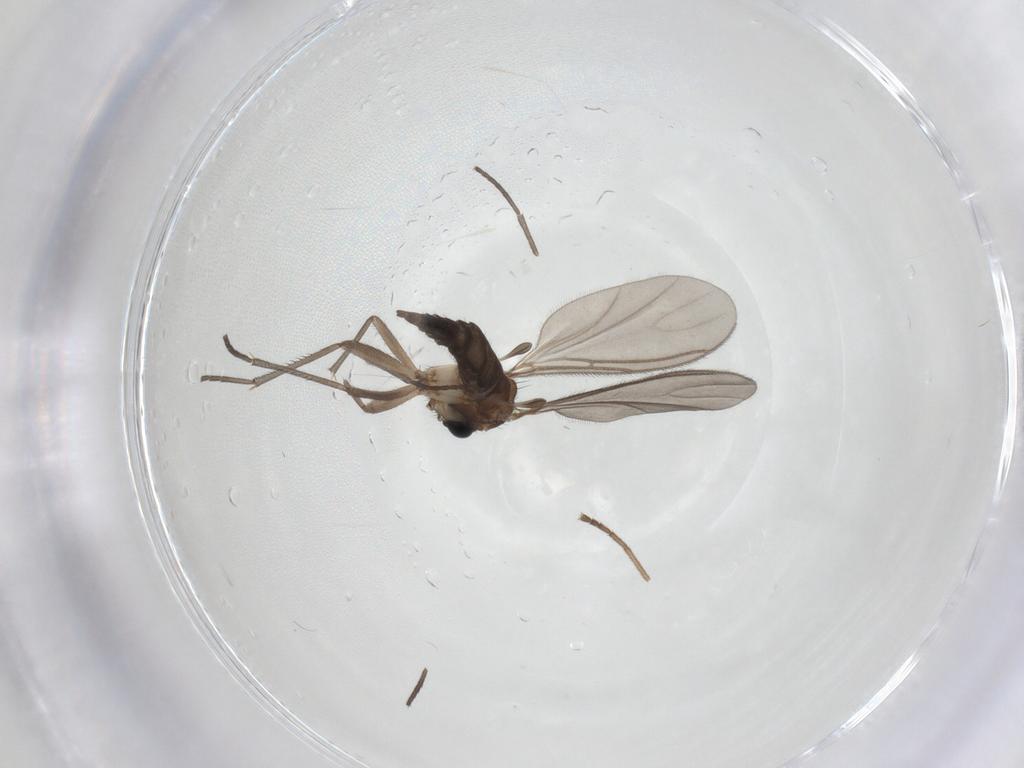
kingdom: Animalia
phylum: Arthropoda
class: Insecta
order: Diptera
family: Sciaridae
